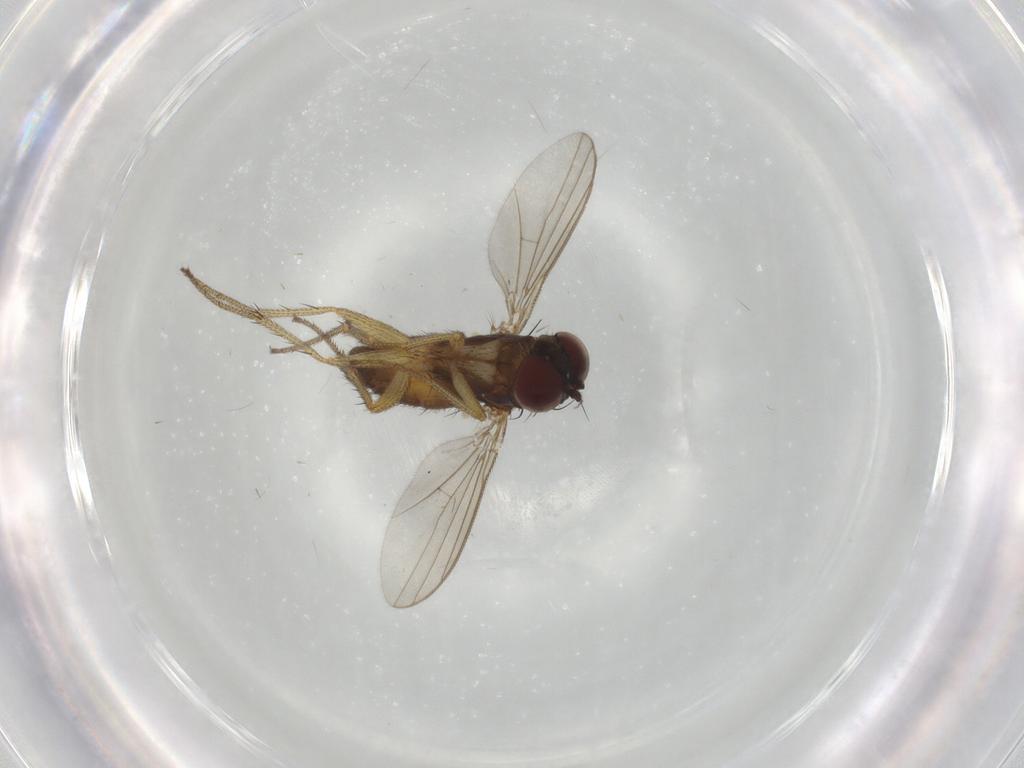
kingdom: Animalia
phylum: Arthropoda
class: Insecta
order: Diptera
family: Dolichopodidae
